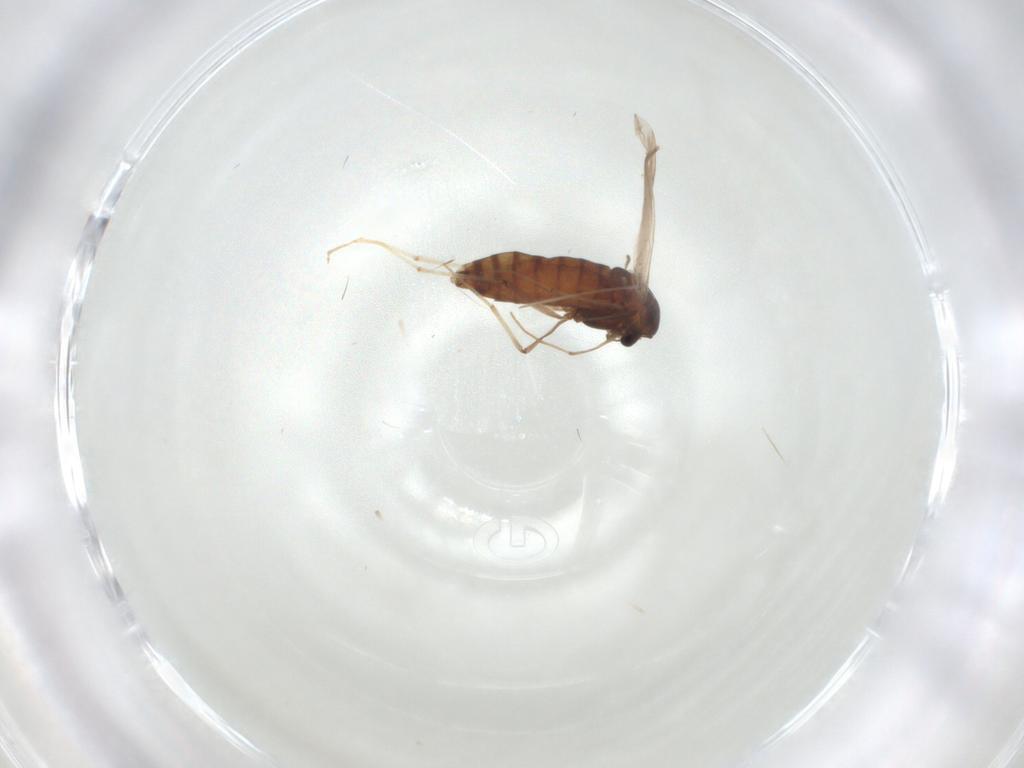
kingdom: Animalia
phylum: Arthropoda
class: Insecta
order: Diptera
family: Chironomidae
